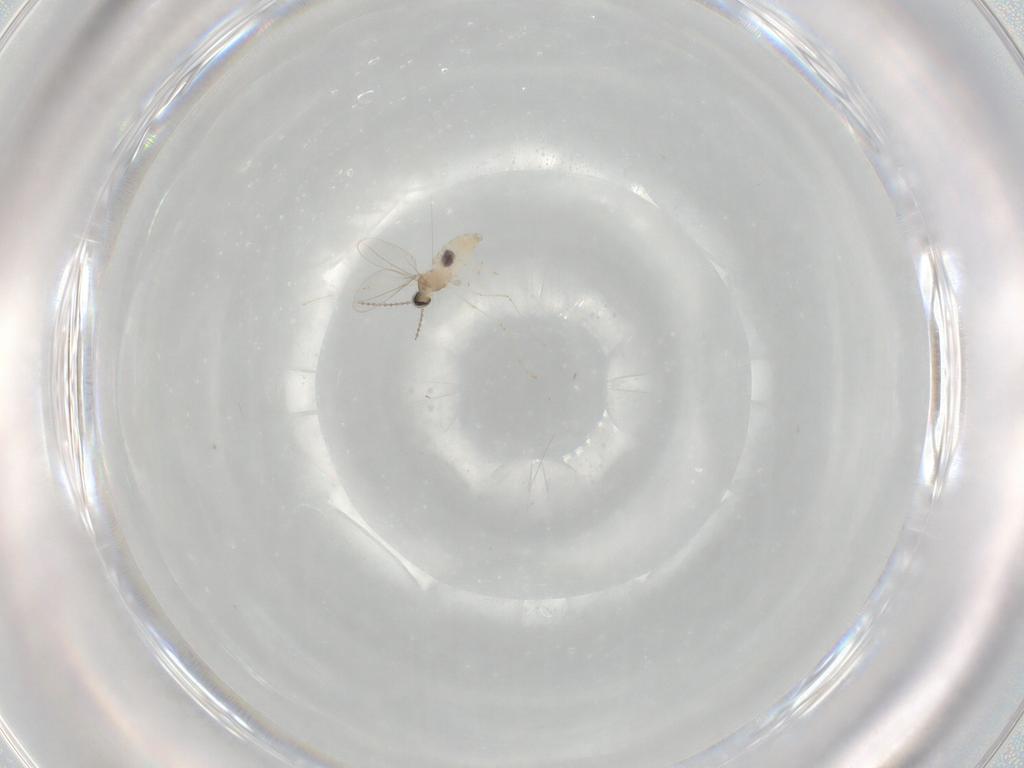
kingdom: Animalia
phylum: Arthropoda
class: Insecta
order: Diptera
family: Cecidomyiidae
